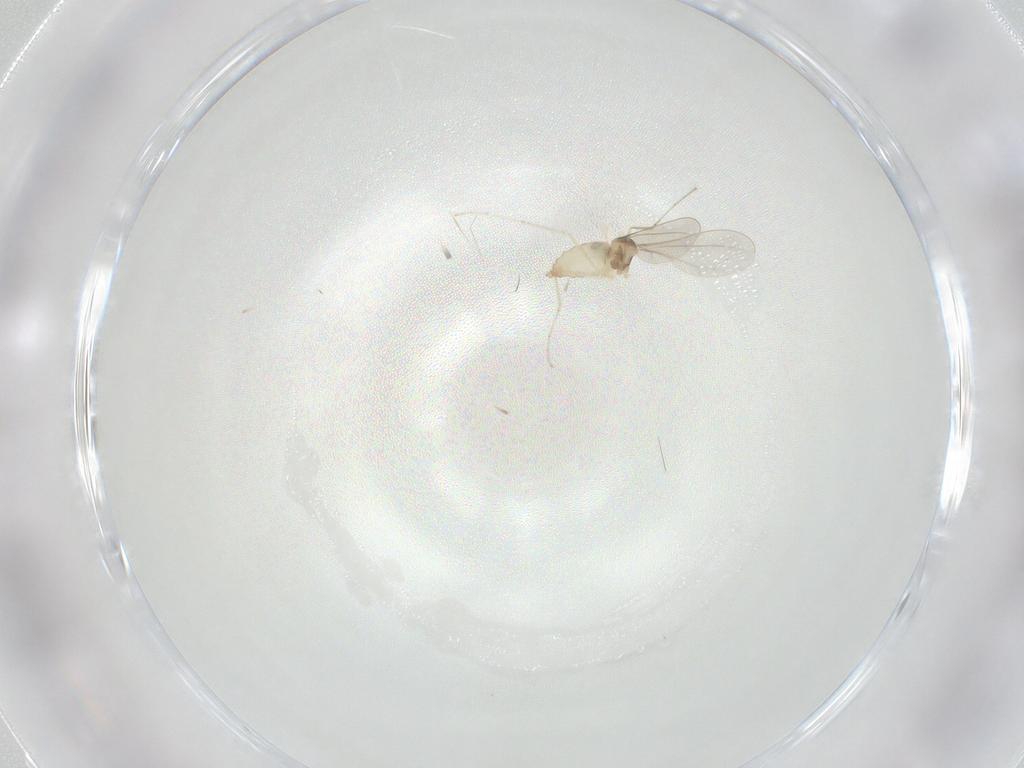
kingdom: Animalia
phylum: Arthropoda
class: Insecta
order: Diptera
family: Cecidomyiidae
